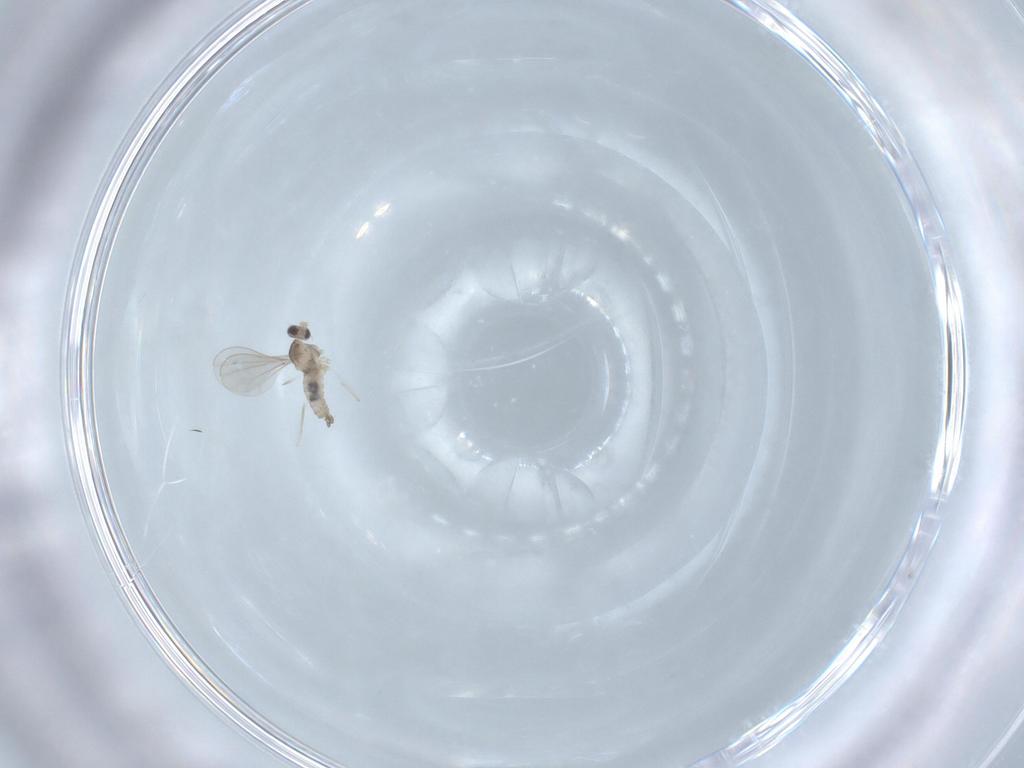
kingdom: Animalia
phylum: Arthropoda
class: Insecta
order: Diptera
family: Cecidomyiidae
